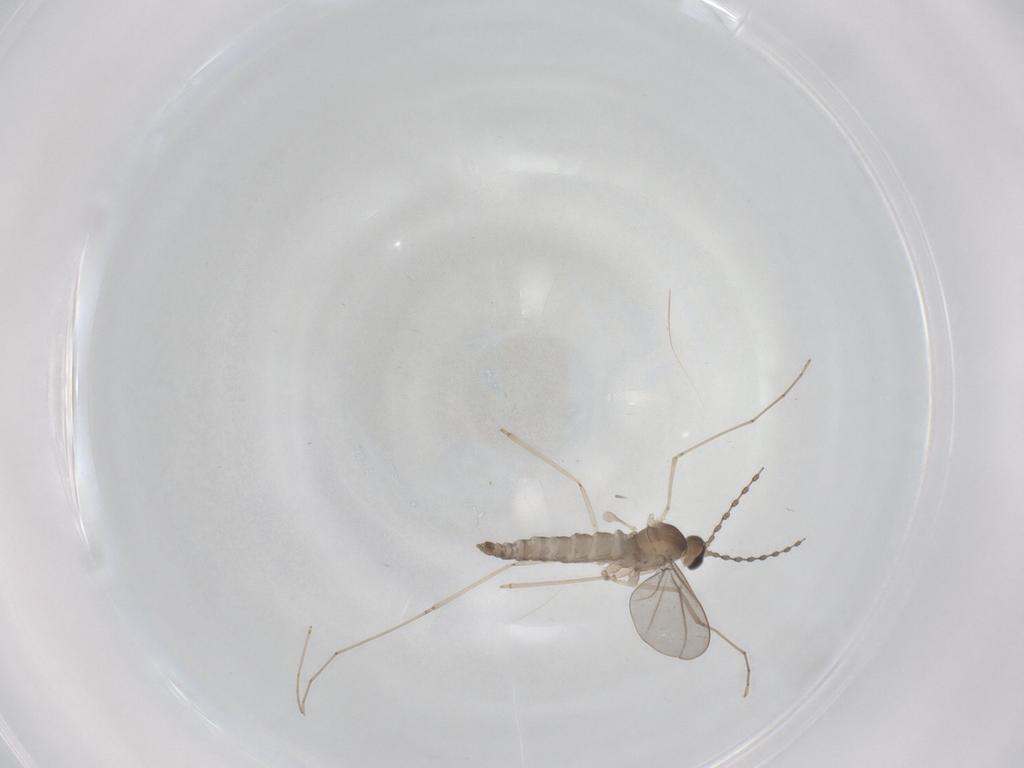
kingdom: Animalia
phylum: Arthropoda
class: Insecta
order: Diptera
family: Cecidomyiidae
